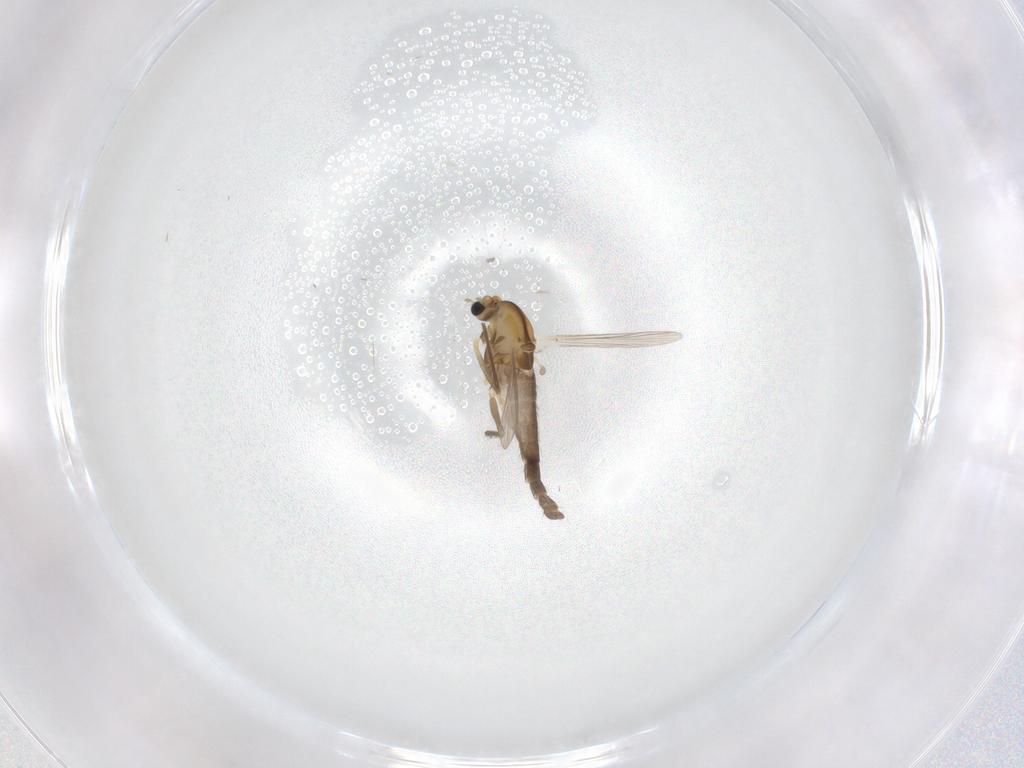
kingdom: Animalia
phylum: Arthropoda
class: Insecta
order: Diptera
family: Chironomidae
